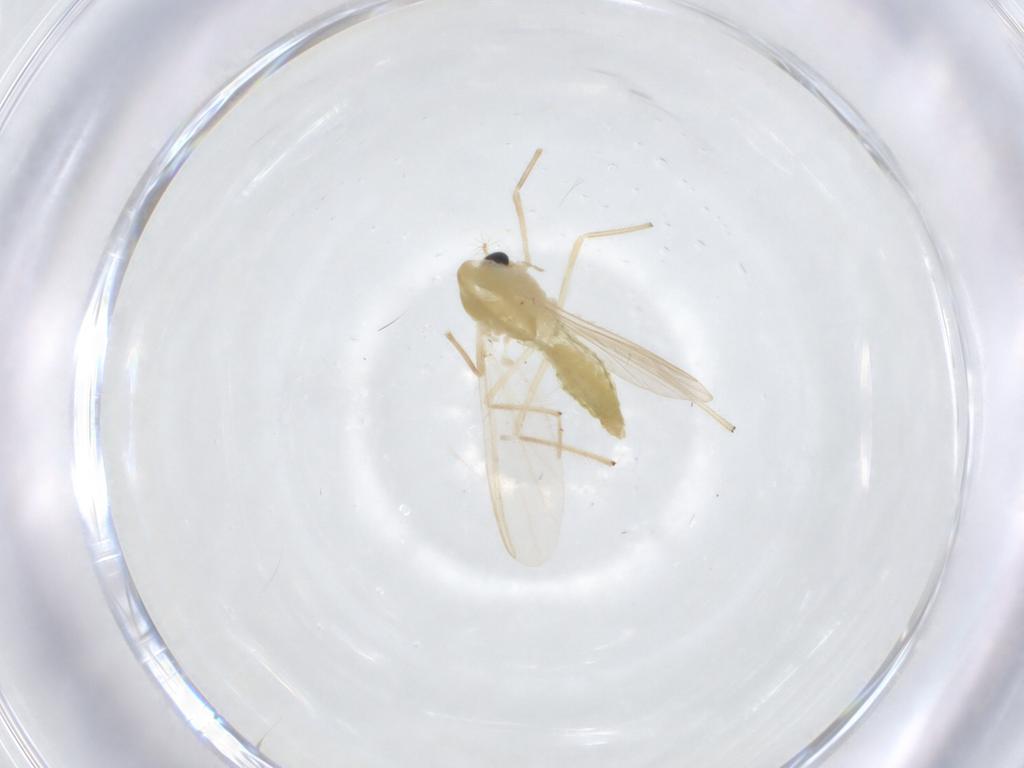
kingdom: Animalia
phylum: Arthropoda
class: Insecta
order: Diptera
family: Chironomidae
